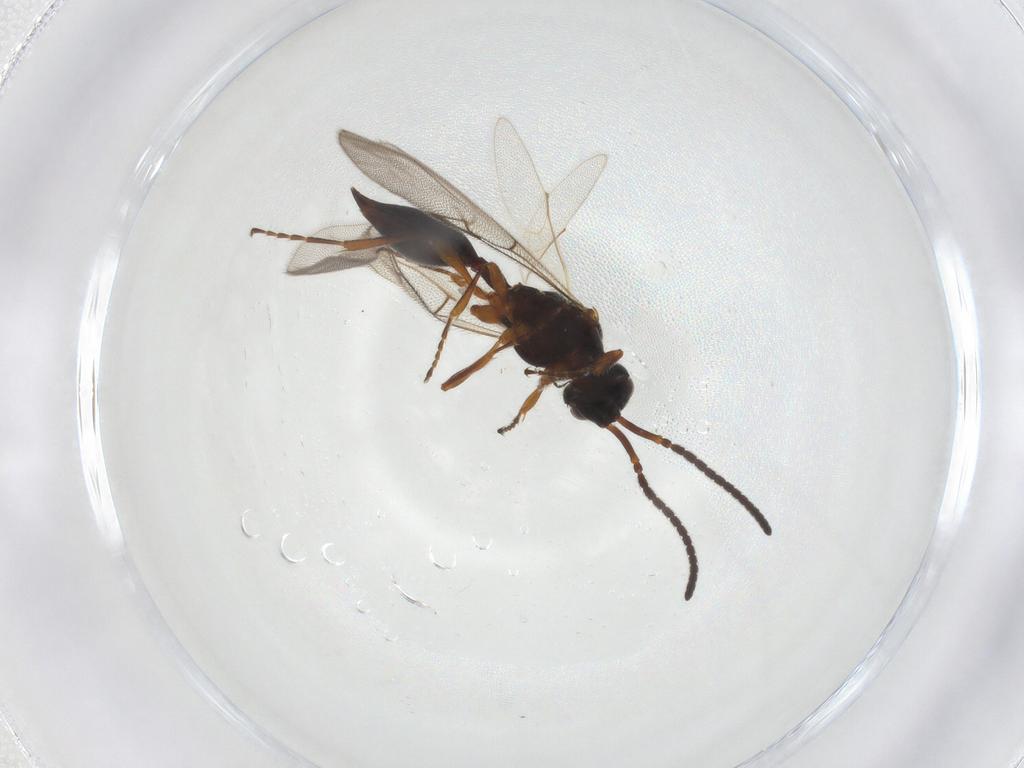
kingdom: Animalia
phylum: Arthropoda
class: Insecta
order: Hymenoptera
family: Diapriidae
